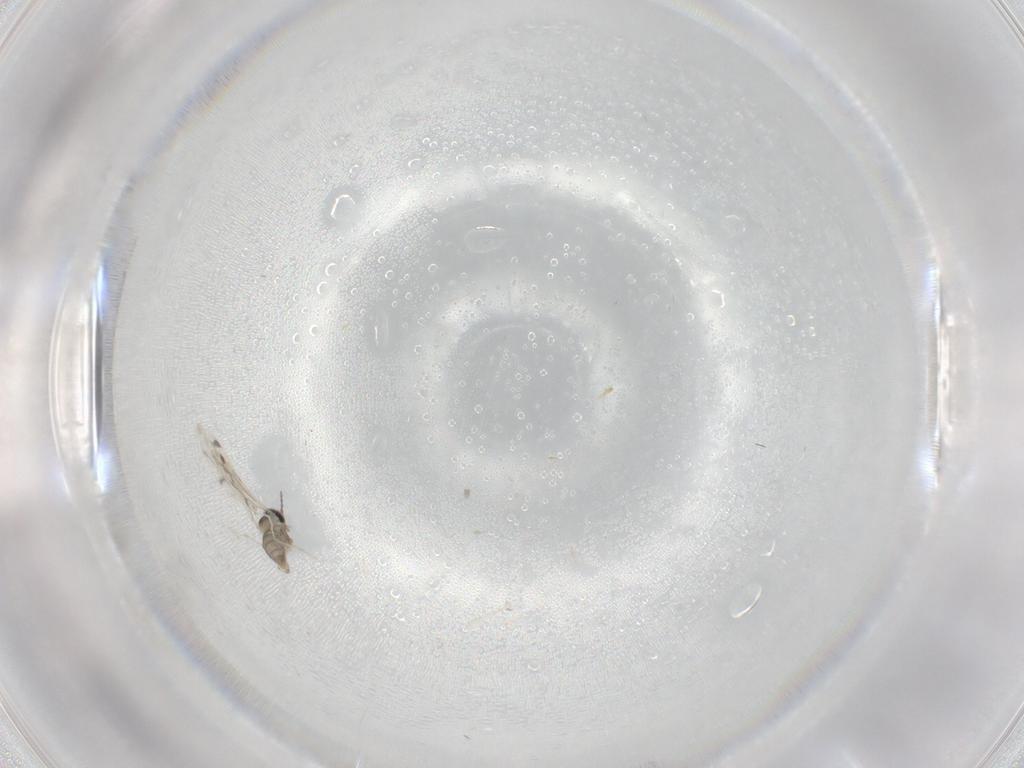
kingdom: Animalia
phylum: Arthropoda
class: Insecta
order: Diptera
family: Cecidomyiidae
